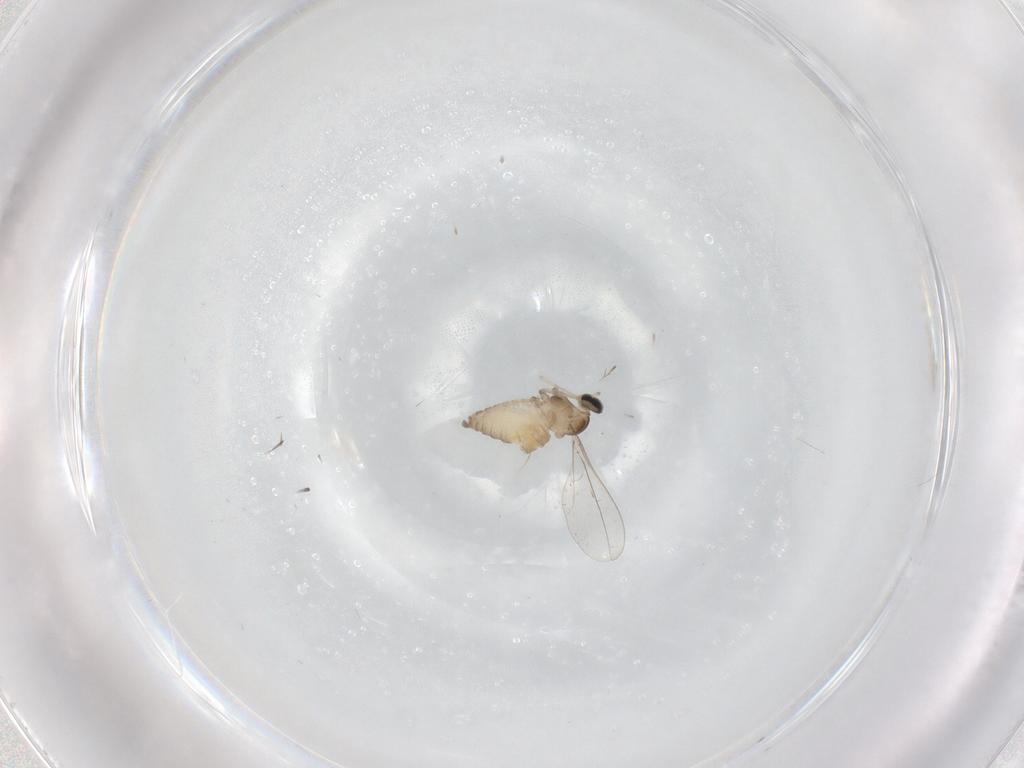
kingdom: Animalia
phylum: Arthropoda
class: Insecta
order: Diptera
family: Cecidomyiidae
